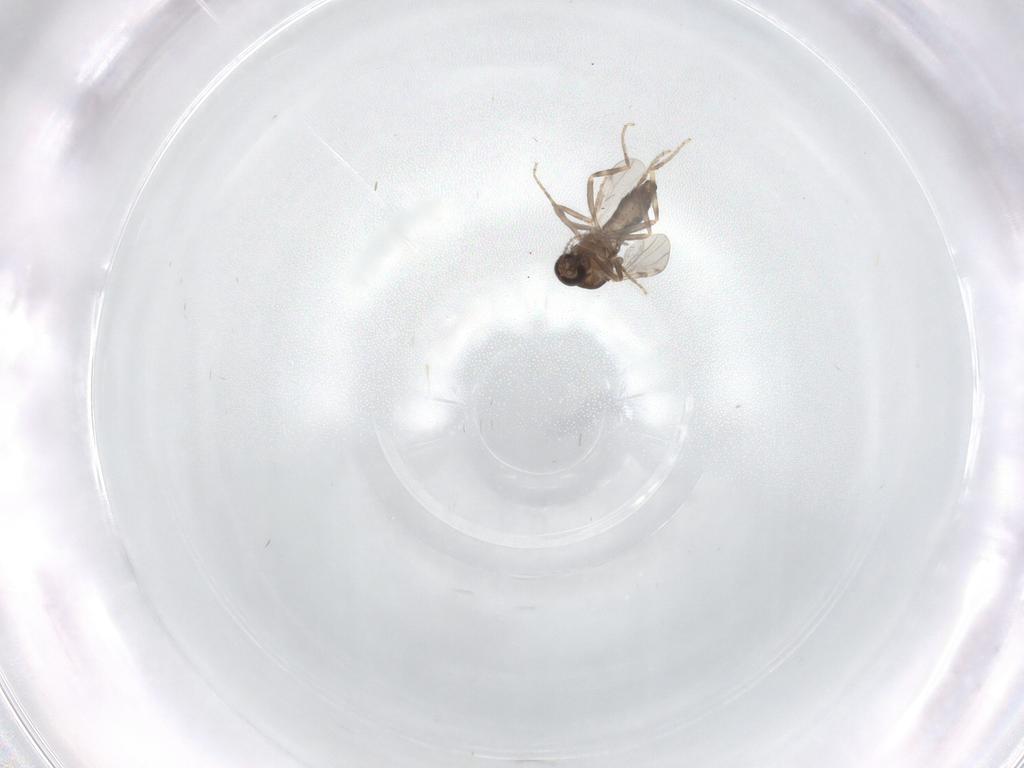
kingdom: Animalia
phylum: Arthropoda
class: Insecta
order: Diptera
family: Ceratopogonidae
